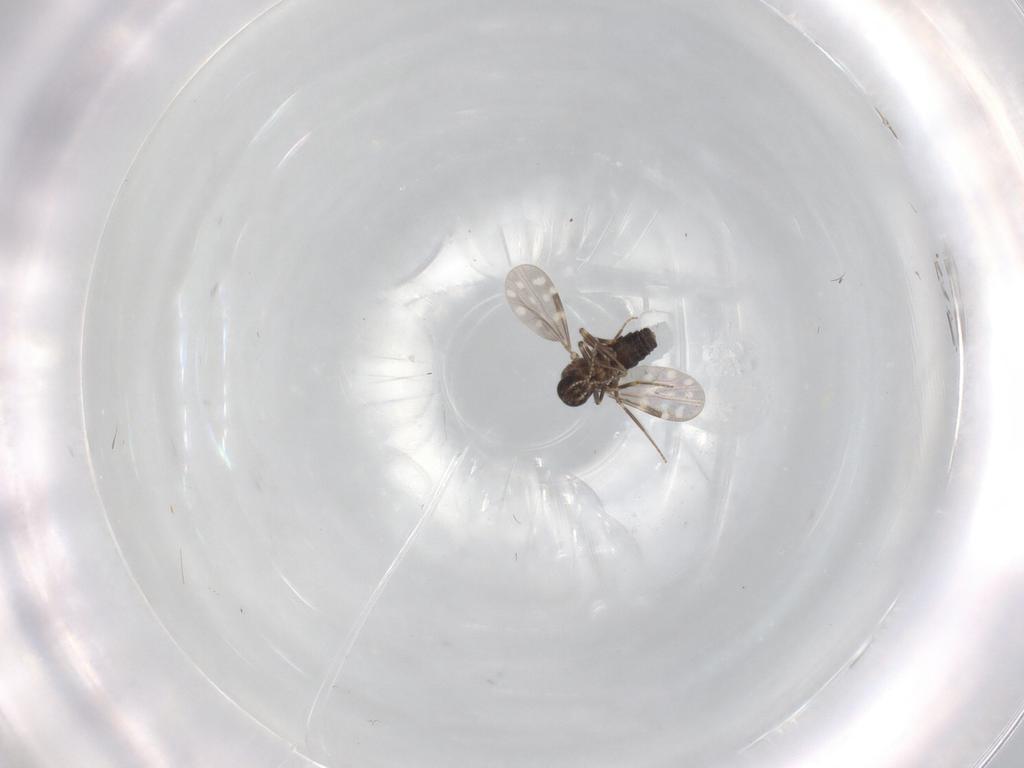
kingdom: Animalia
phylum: Arthropoda
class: Insecta
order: Diptera
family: Ceratopogonidae
